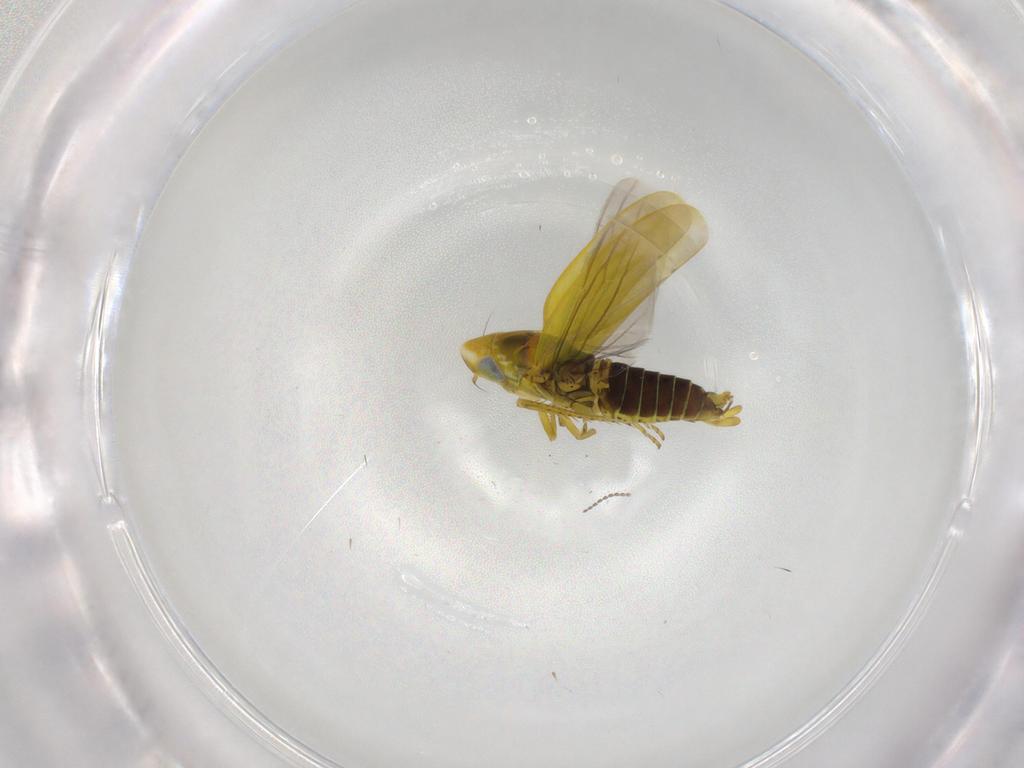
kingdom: Animalia
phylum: Arthropoda
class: Insecta
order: Hemiptera
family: Cicadellidae
